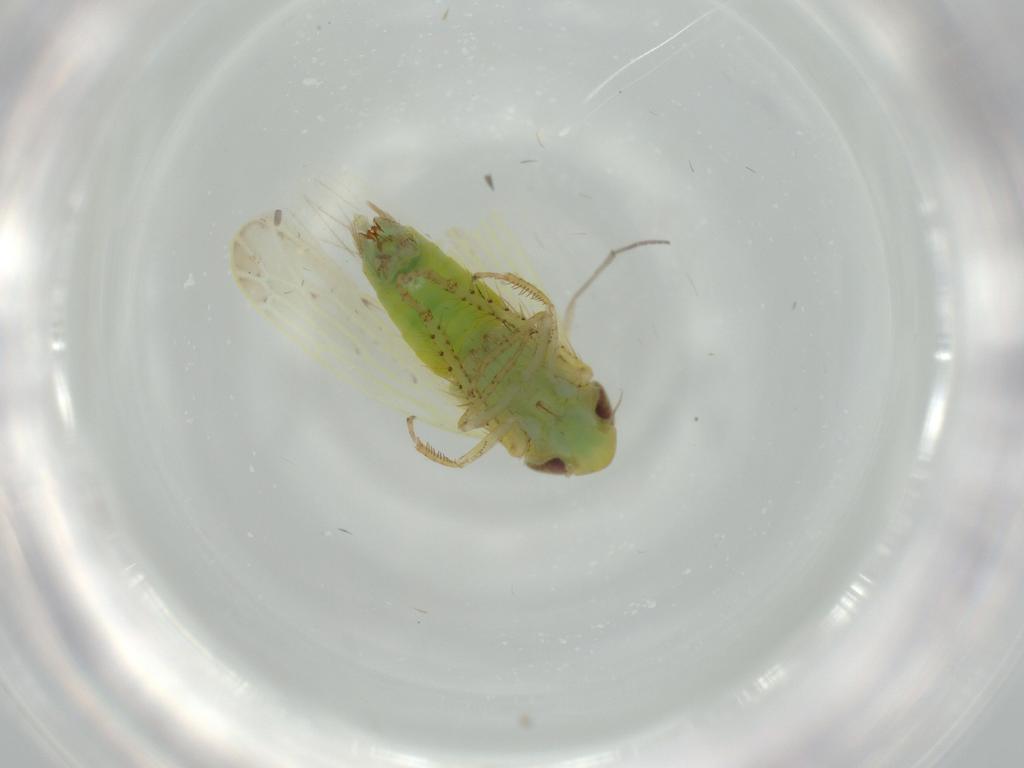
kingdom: Animalia
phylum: Arthropoda
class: Insecta
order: Hemiptera
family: Cicadellidae
